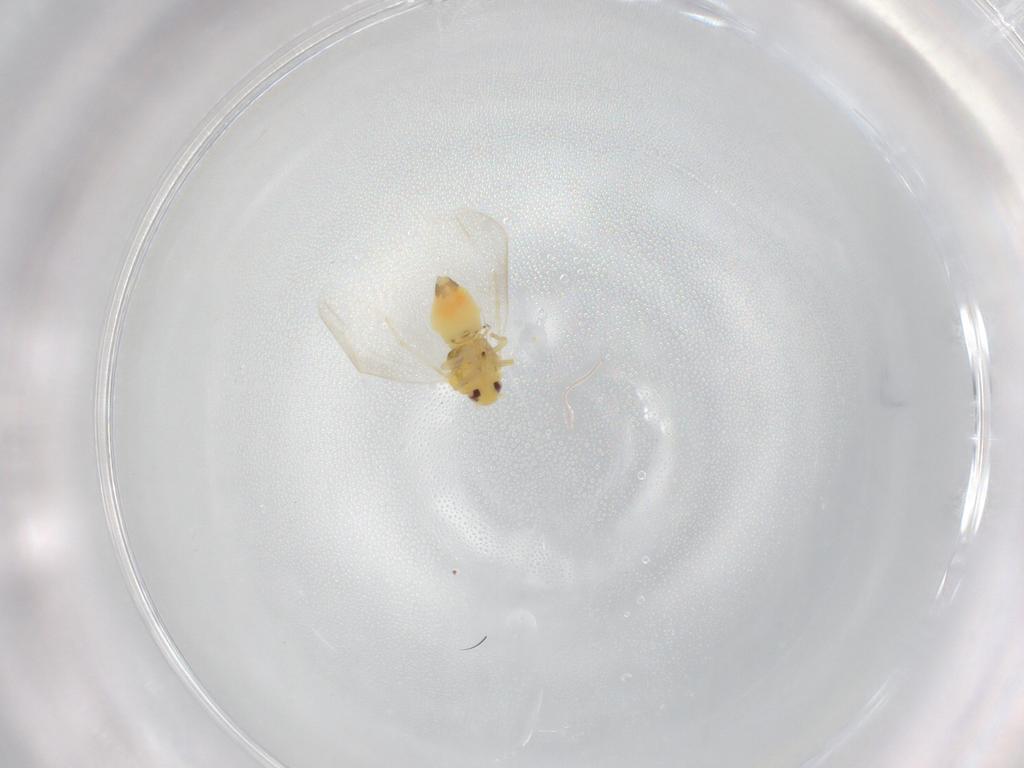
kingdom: Animalia
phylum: Arthropoda
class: Insecta
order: Hemiptera
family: Aleyrodidae
